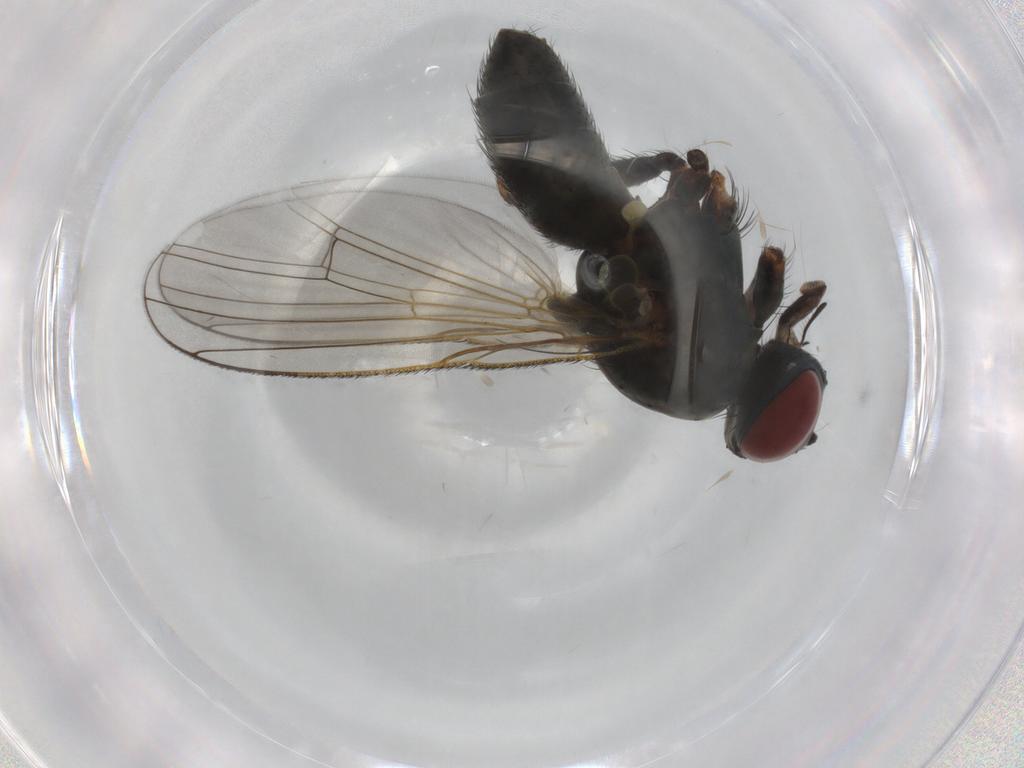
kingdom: Animalia
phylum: Arthropoda
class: Insecta
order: Diptera
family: Muscidae
